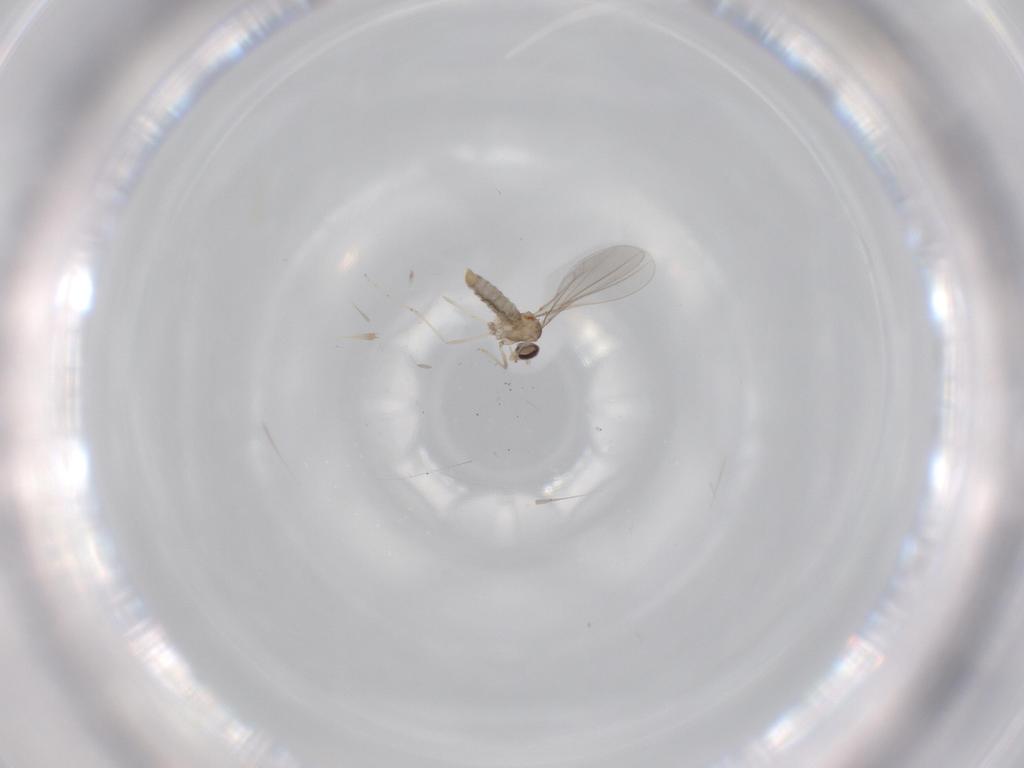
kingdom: Animalia
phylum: Arthropoda
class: Insecta
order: Diptera
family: Cecidomyiidae
